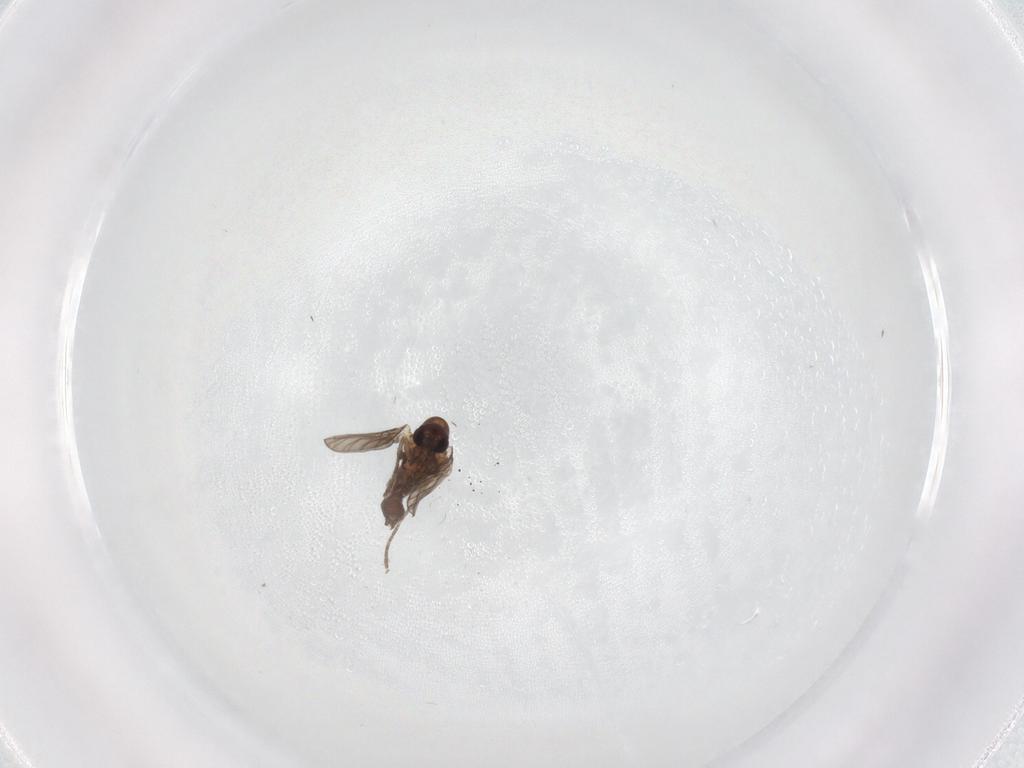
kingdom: Animalia
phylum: Arthropoda
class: Insecta
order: Diptera
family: Phoridae
